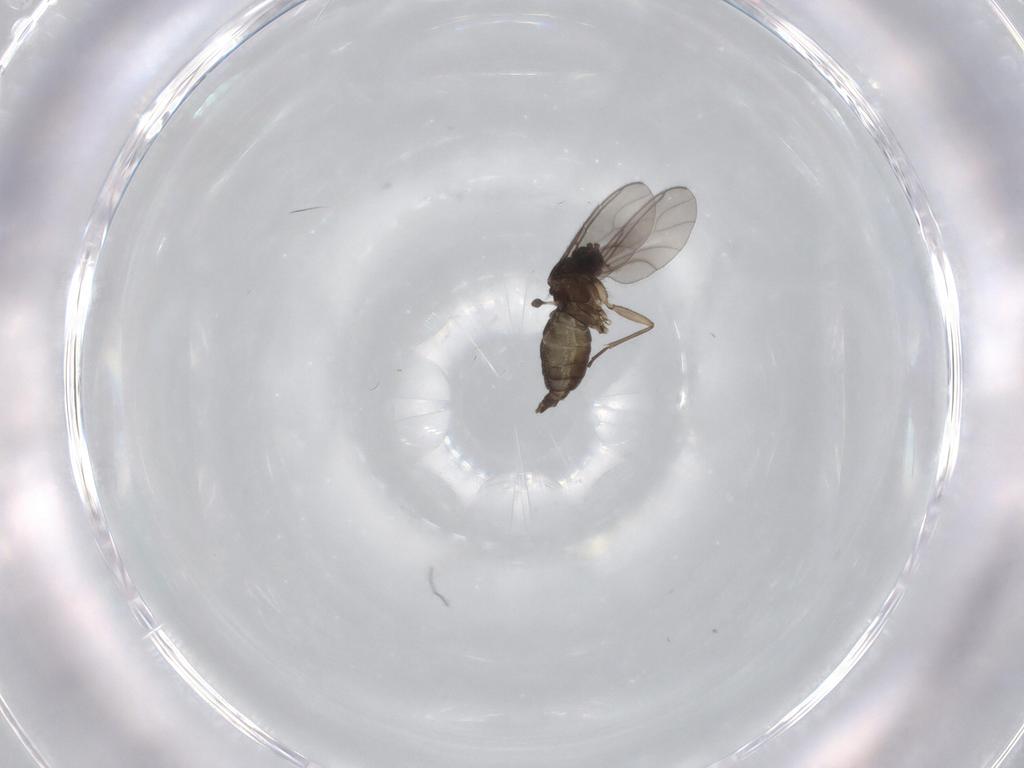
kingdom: Animalia
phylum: Arthropoda
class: Insecta
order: Diptera
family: Sciaridae
